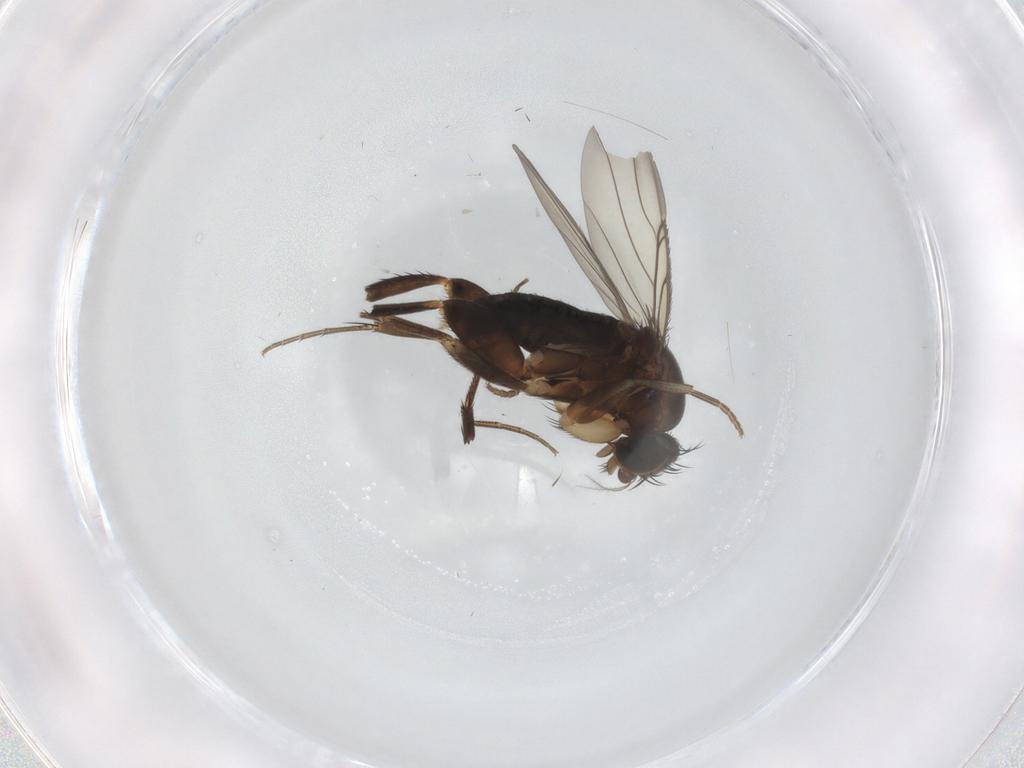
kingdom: Animalia
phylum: Arthropoda
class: Insecta
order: Diptera
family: Phoridae
